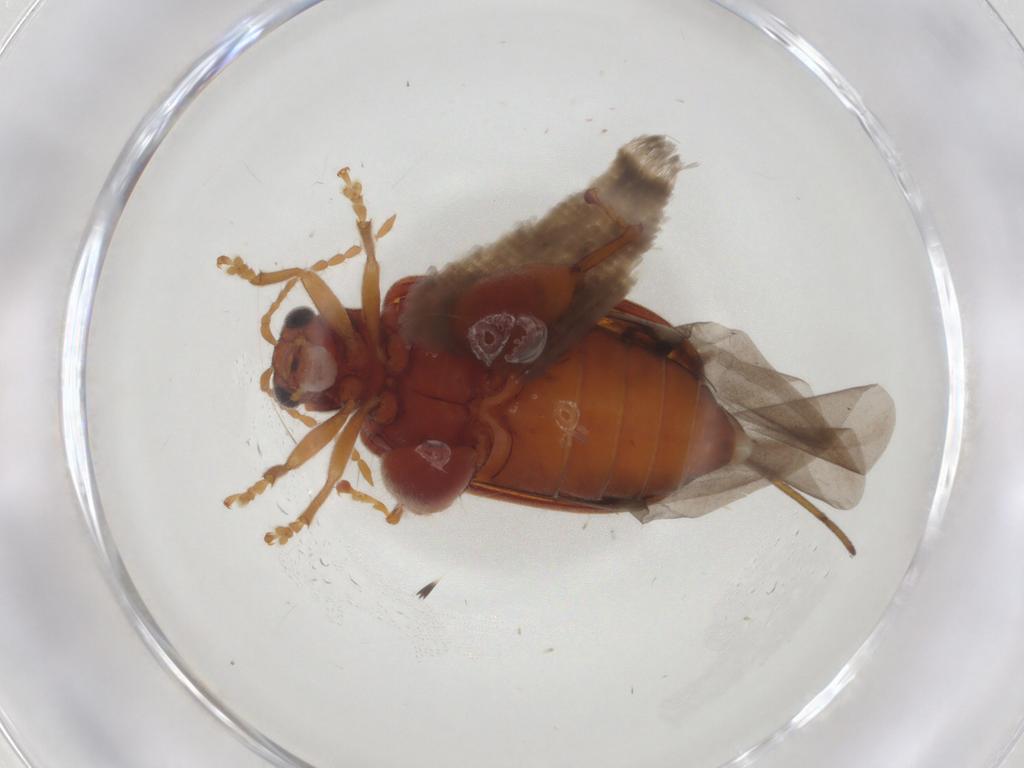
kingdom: Animalia
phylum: Arthropoda
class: Insecta
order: Coleoptera
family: Chrysomelidae
